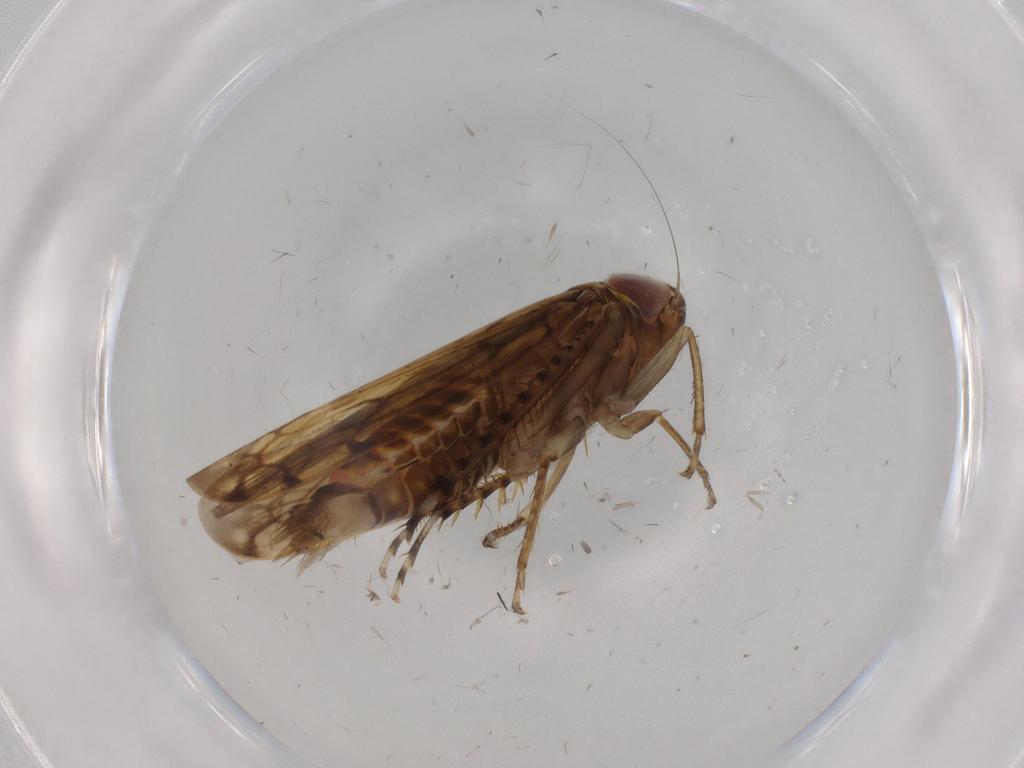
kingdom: Animalia
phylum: Arthropoda
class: Insecta
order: Hemiptera
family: Cicadellidae
